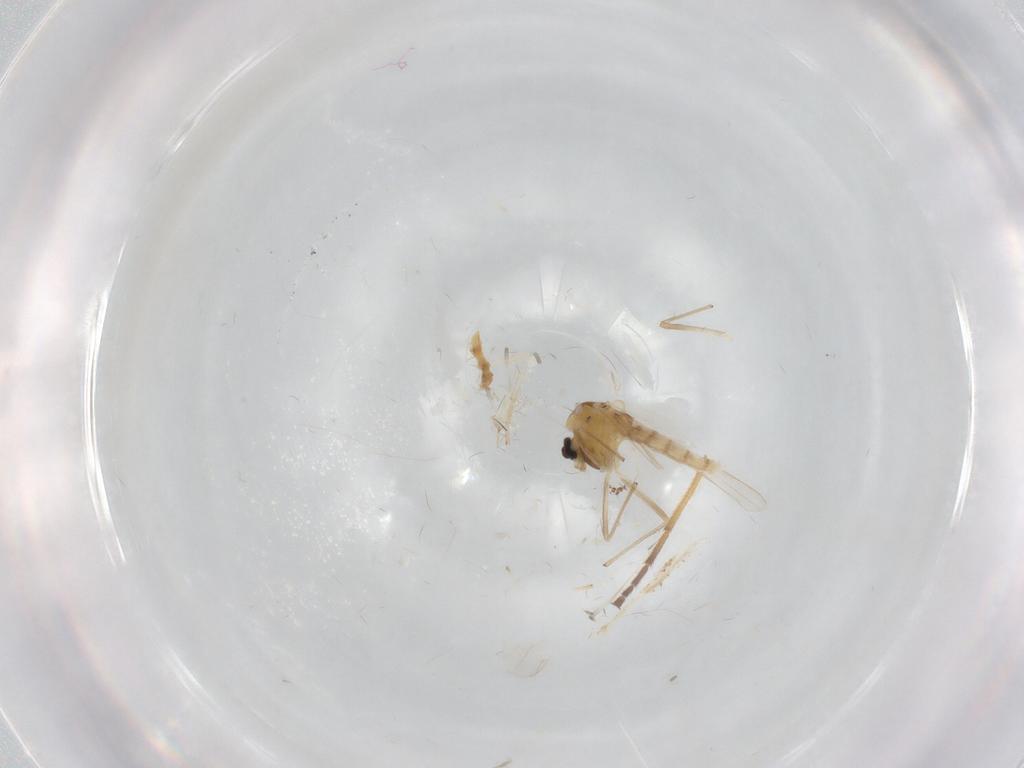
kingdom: Animalia
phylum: Arthropoda
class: Insecta
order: Diptera
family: Psychodidae
